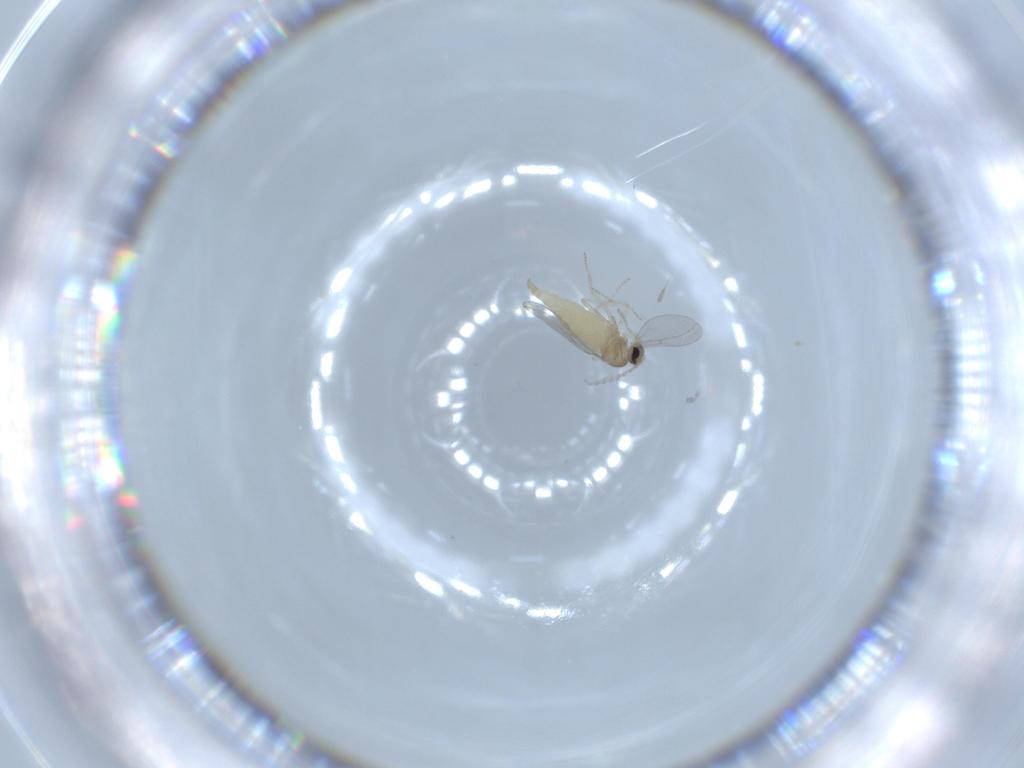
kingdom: Animalia
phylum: Arthropoda
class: Insecta
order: Diptera
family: Cecidomyiidae
